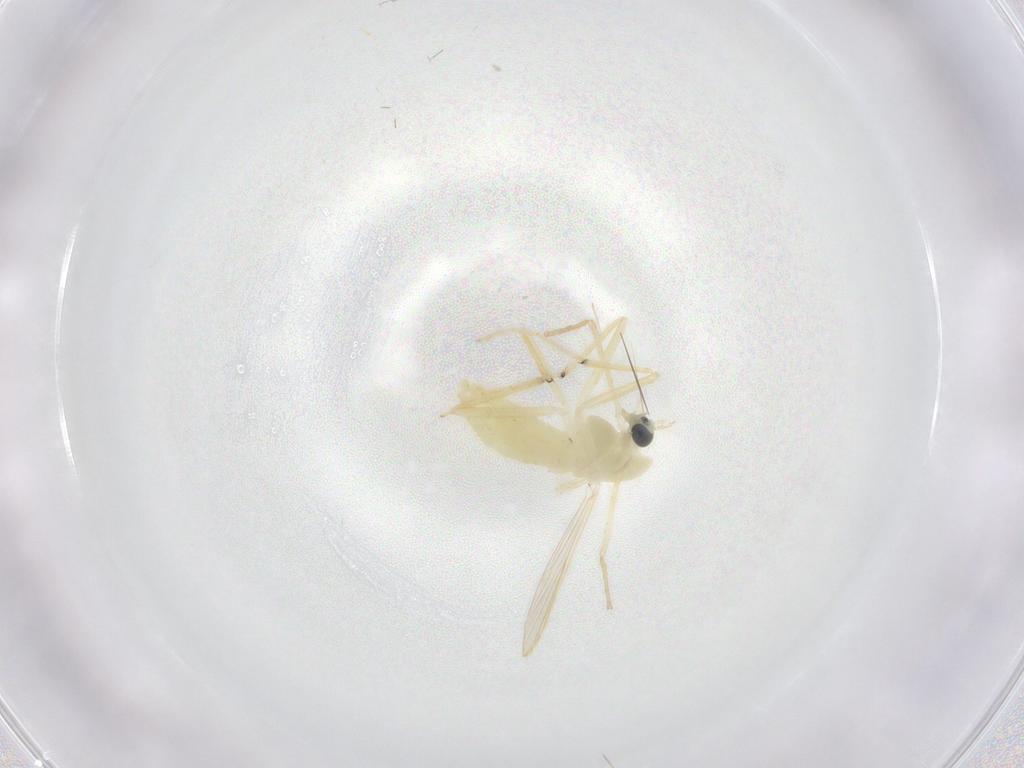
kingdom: Animalia
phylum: Arthropoda
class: Insecta
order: Diptera
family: Chironomidae
